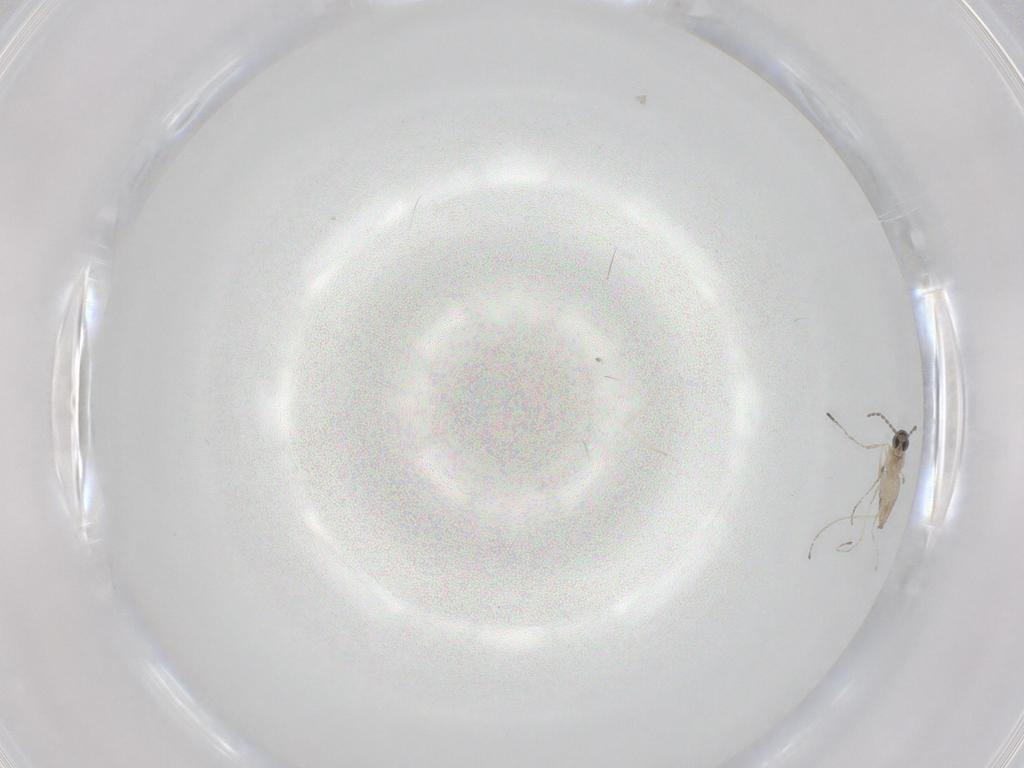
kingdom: Animalia
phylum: Arthropoda
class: Insecta
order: Diptera
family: Cecidomyiidae
